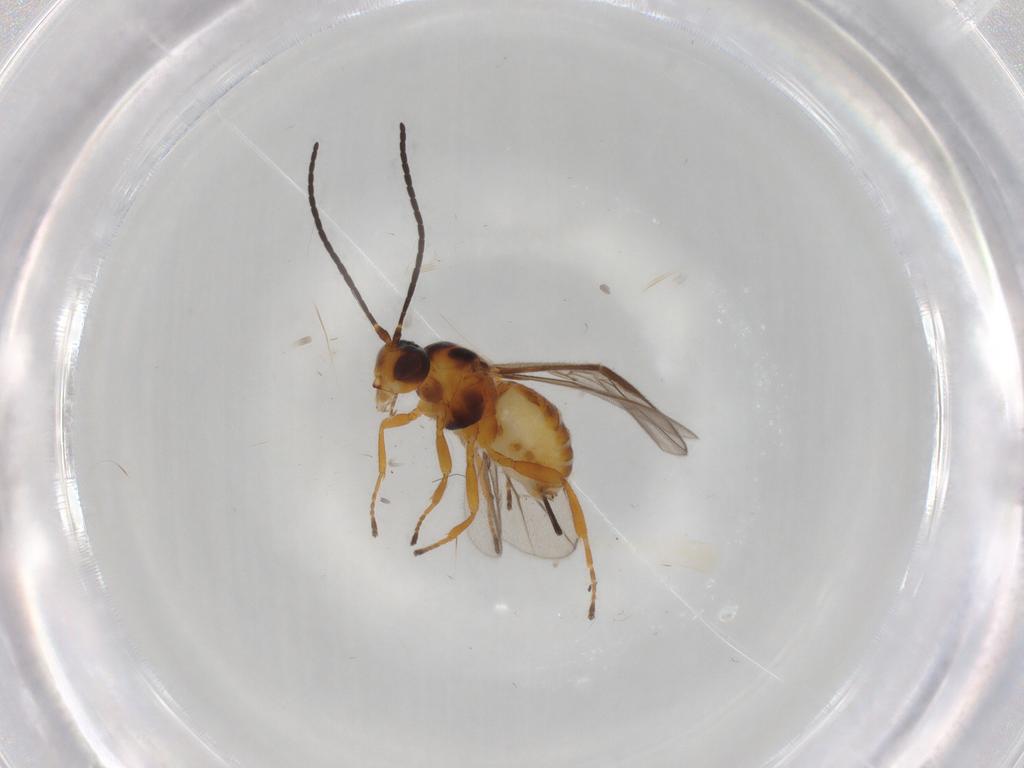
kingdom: Animalia
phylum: Arthropoda
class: Insecta
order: Hymenoptera
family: Braconidae
